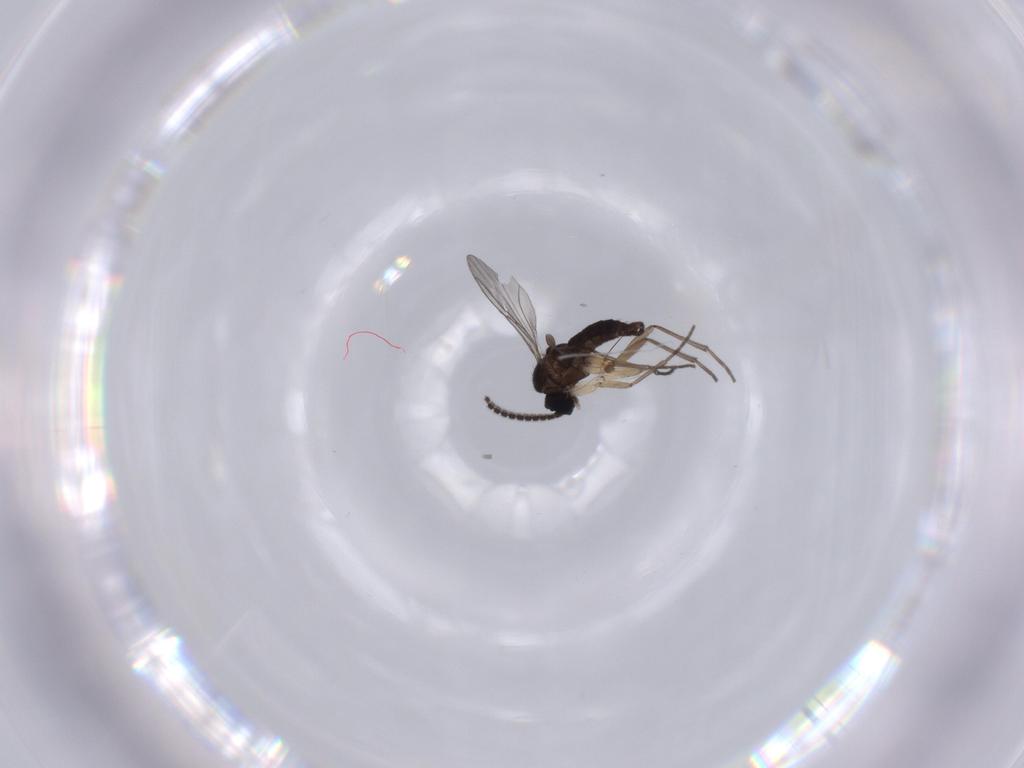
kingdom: Animalia
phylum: Arthropoda
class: Insecta
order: Diptera
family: Sciaridae
